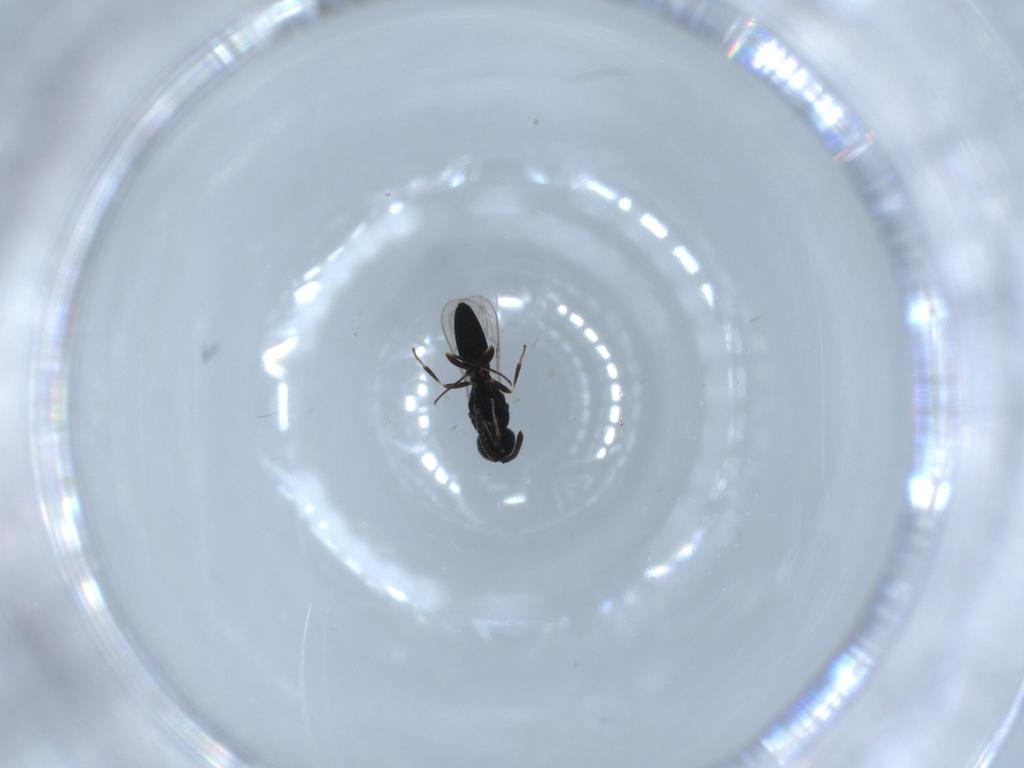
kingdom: Animalia
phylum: Arthropoda
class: Insecta
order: Hymenoptera
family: Scelionidae
